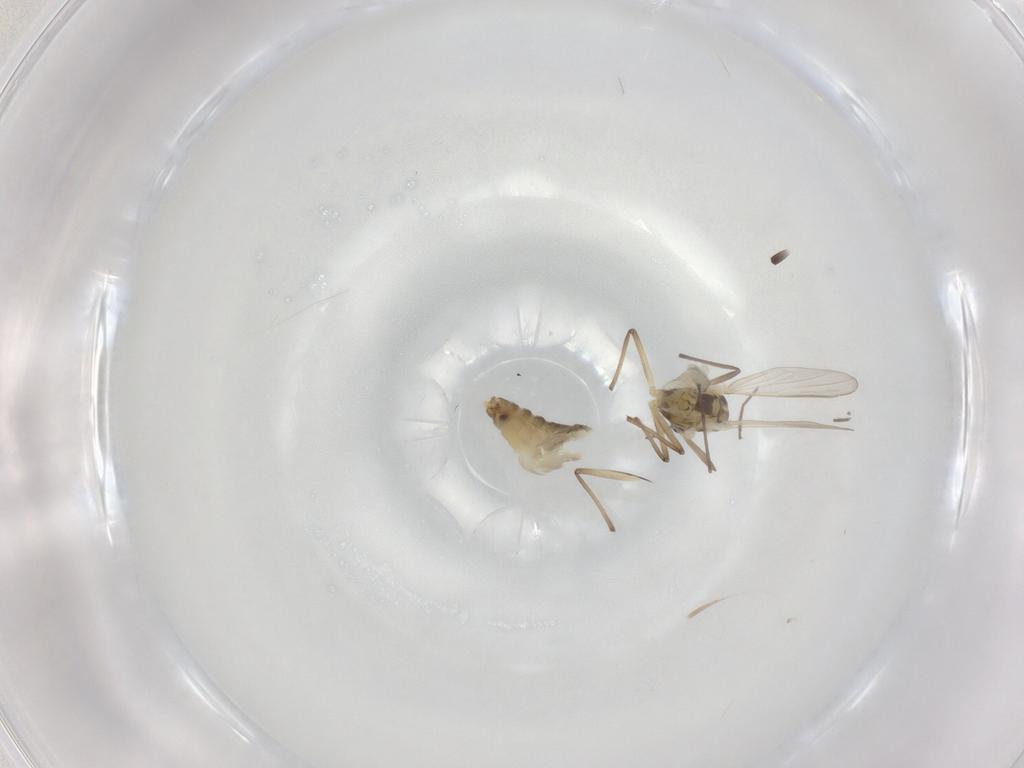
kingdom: Animalia
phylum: Arthropoda
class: Insecta
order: Diptera
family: Chironomidae
